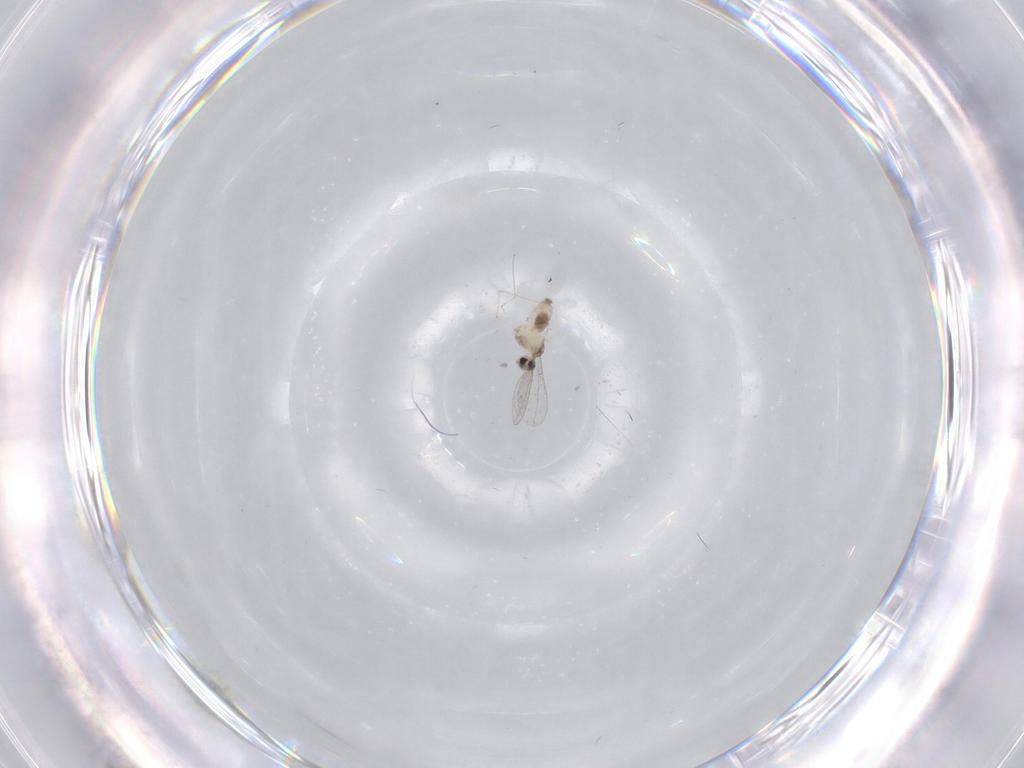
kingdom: Animalia
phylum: Arthropoda
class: Insecta
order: Diptera
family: Cecidomyiidae
